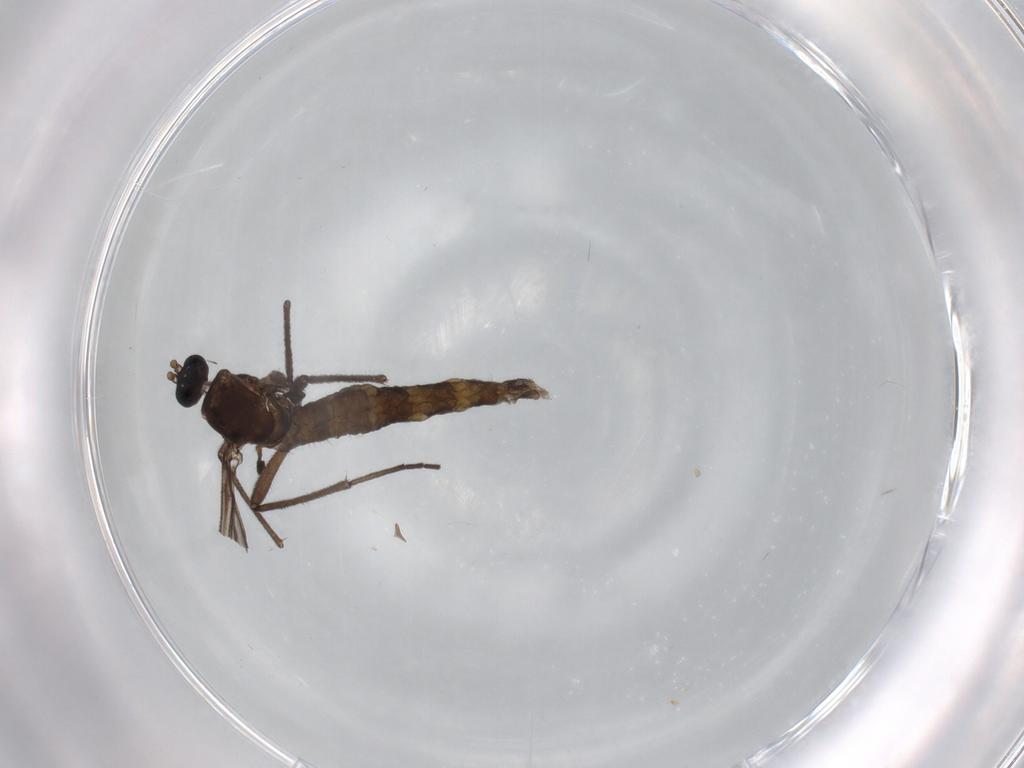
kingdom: Animalia
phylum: Arthropoda
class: Insecta
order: Diptera
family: Sciaridae
